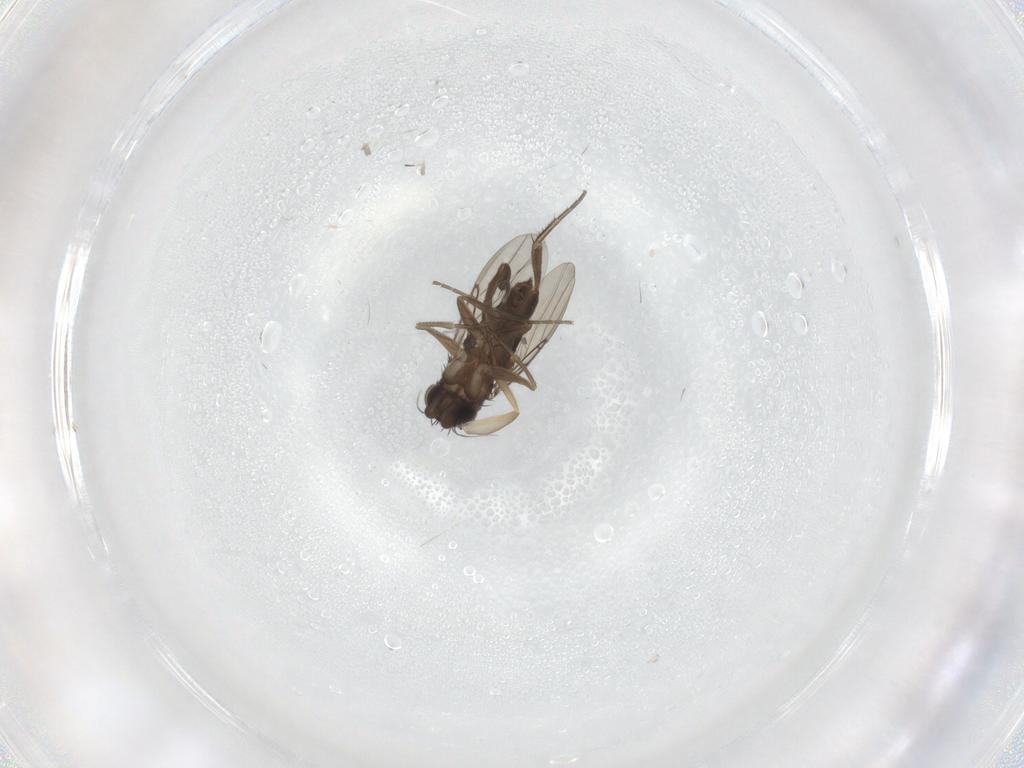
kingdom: Animalia
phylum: Arthropoda
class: Insecta
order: Diptera
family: Phoridae
